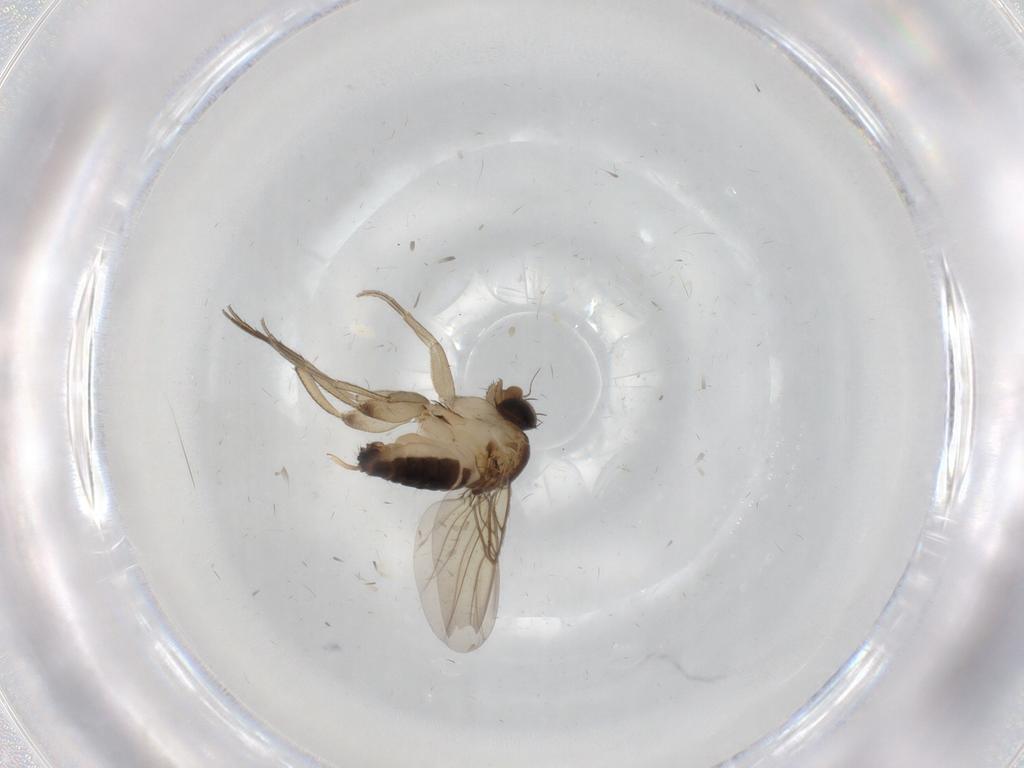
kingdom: Animalia
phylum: Arthropoda
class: Insecta
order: Diptera
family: Phoridae
